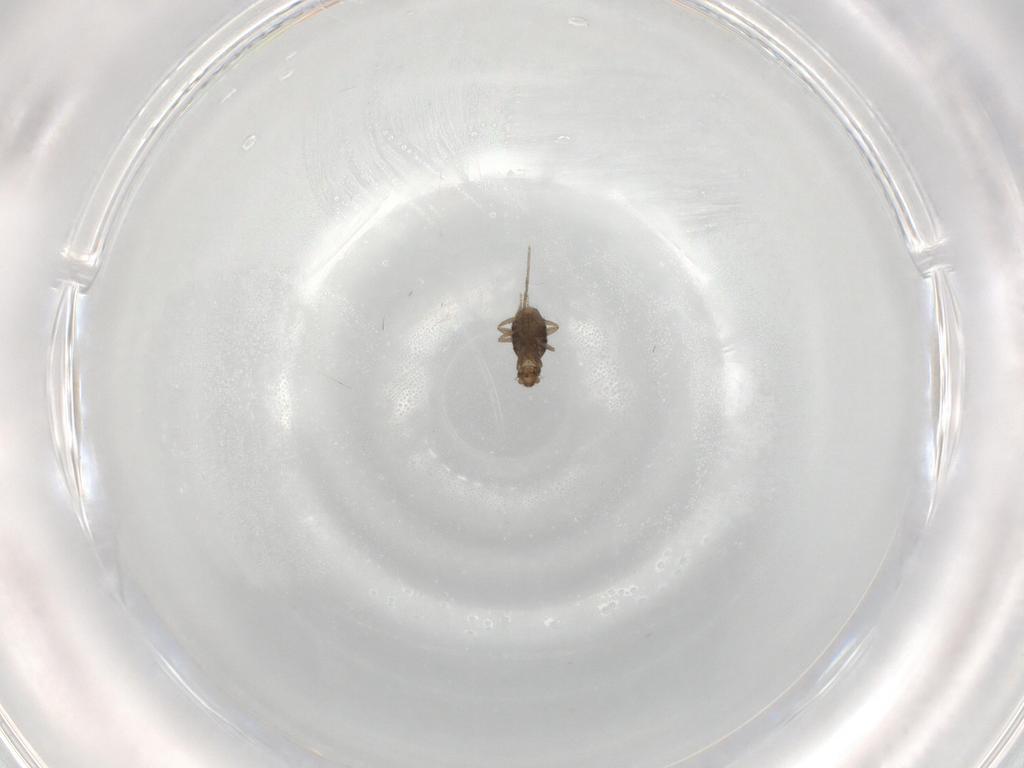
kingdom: Animalia
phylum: Arthropoda
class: Insecta
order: Diptera
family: Cecidomyiidae
